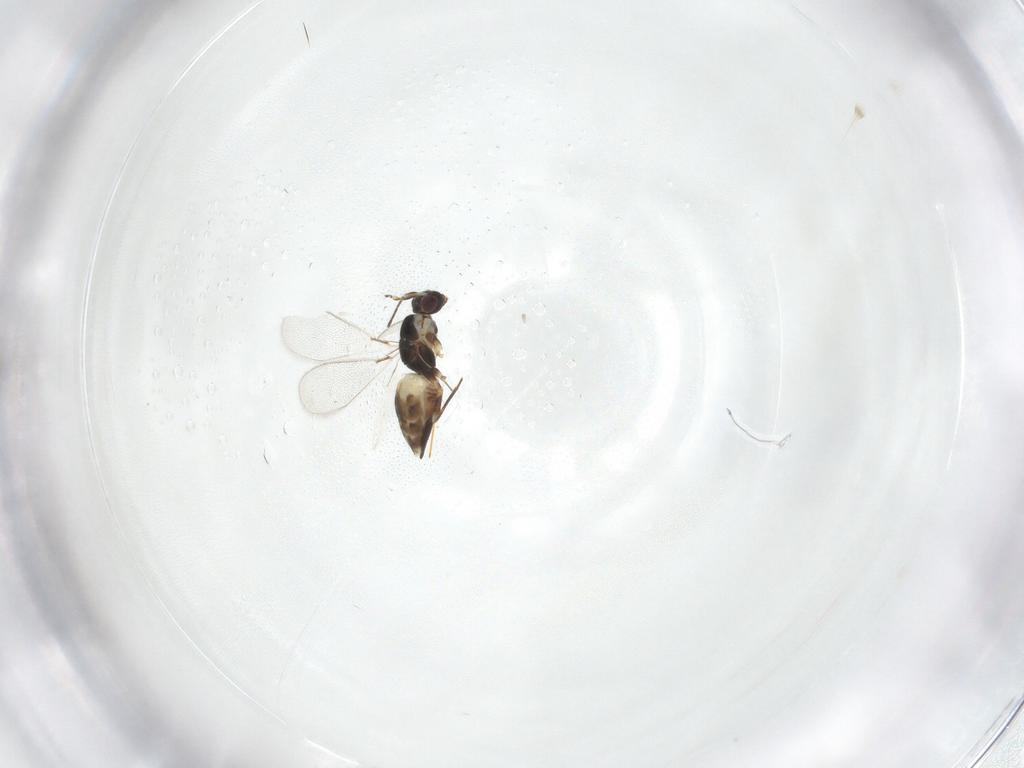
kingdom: Animalia
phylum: Arthropoda
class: Insecta
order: Hymenoptera
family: Mymaridae
